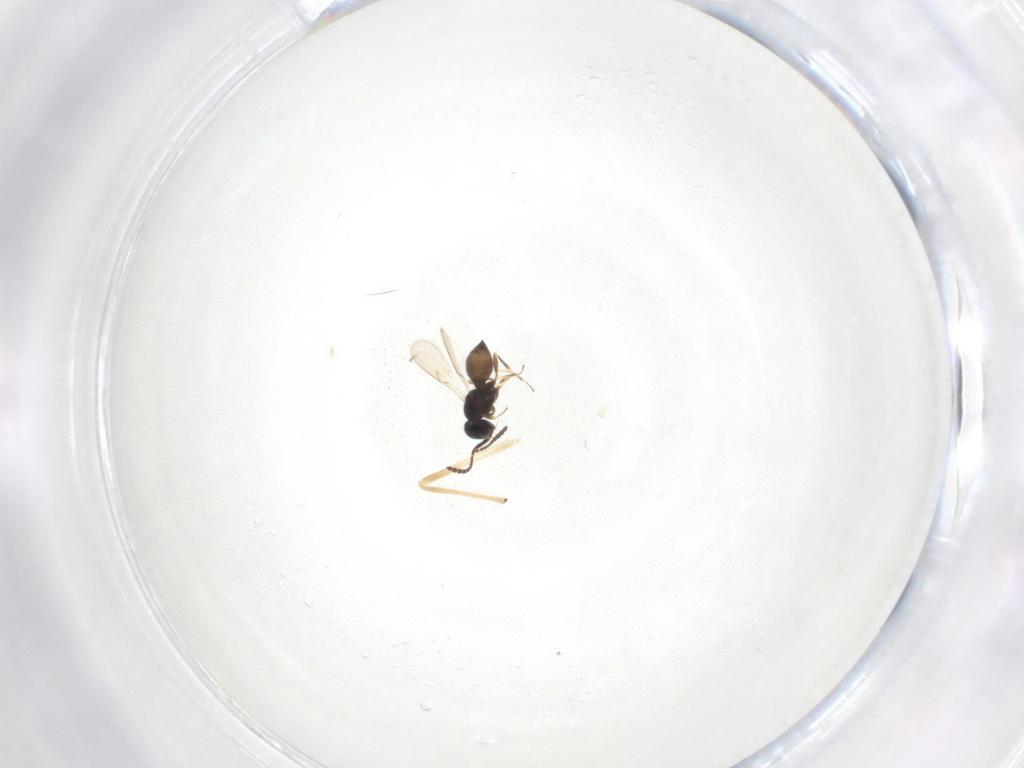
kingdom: Animalia
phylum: Arthropoda
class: Insecta
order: Hymenoptera
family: Scelionidae
